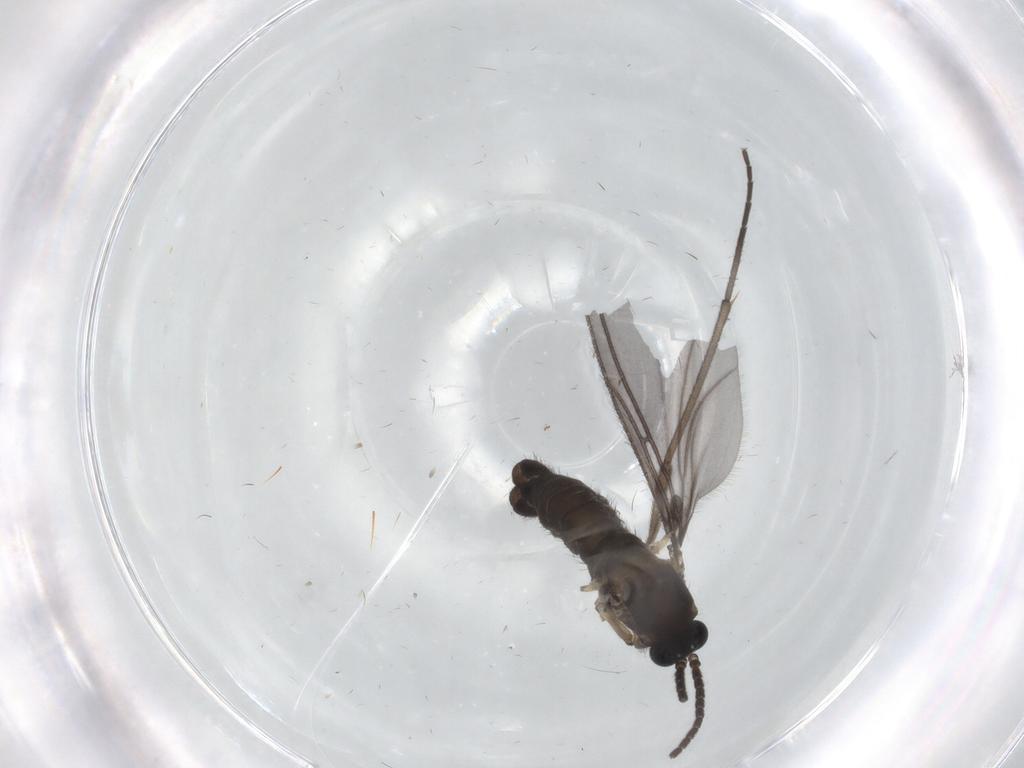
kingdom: Animalia
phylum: Arthropoda
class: Insecta
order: Diptera
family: Sciaridae
